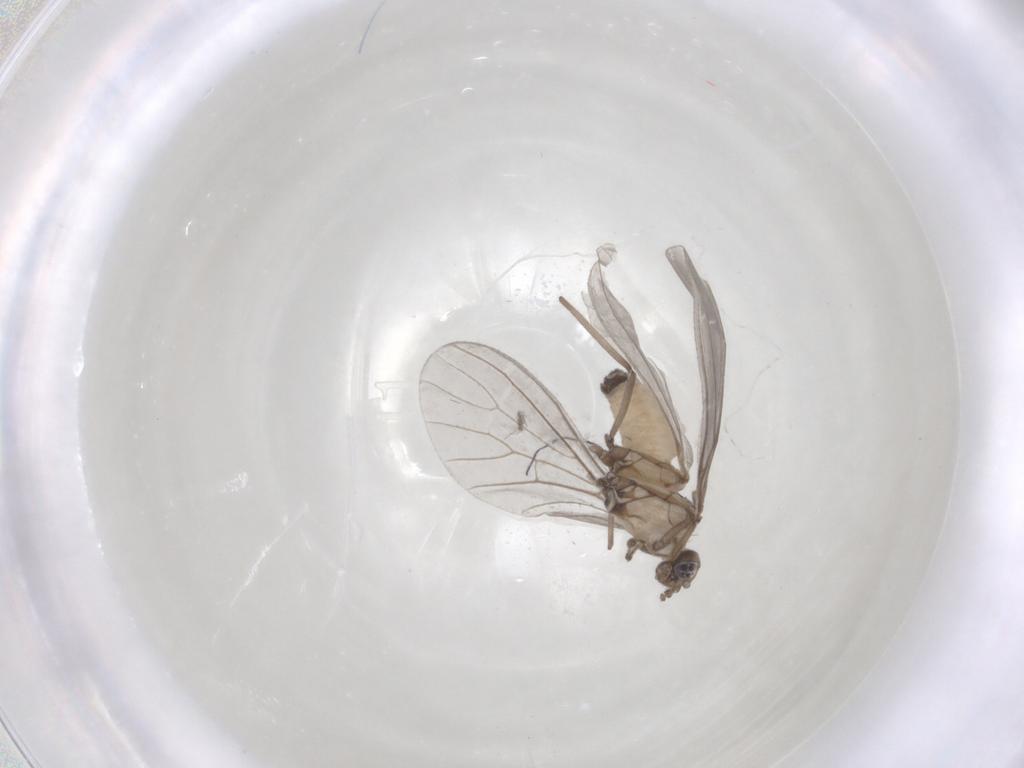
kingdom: Animalia
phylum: Arthropoda
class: Insecta
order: Neuroptera
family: Coniopterygidae
